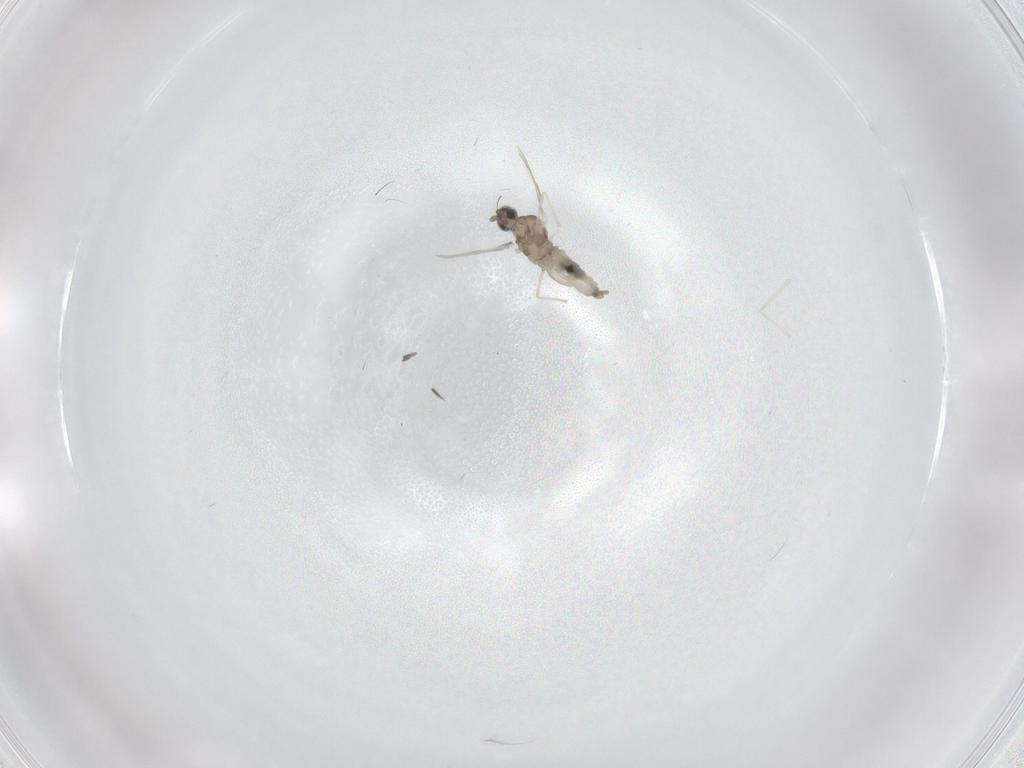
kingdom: Animalia
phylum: Arthropoda
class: Insecta
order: Diptera
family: Cecidomyiidae
